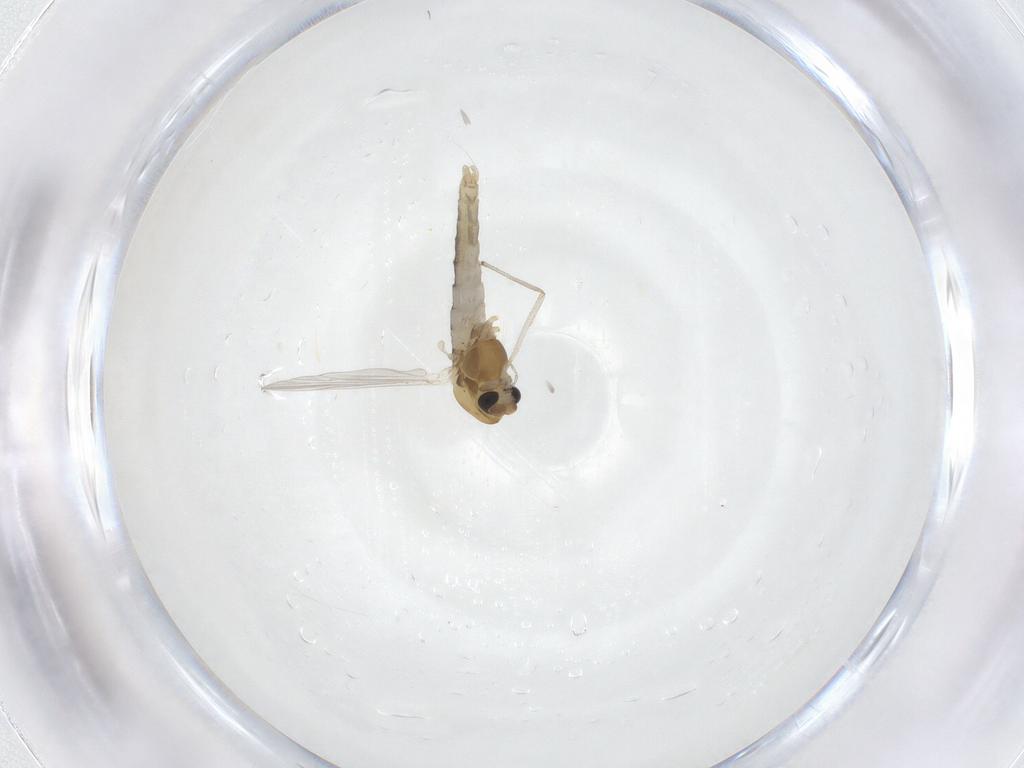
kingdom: Animalia
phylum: Arthropoda
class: Insecta
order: Diptera
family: Chironomidae
